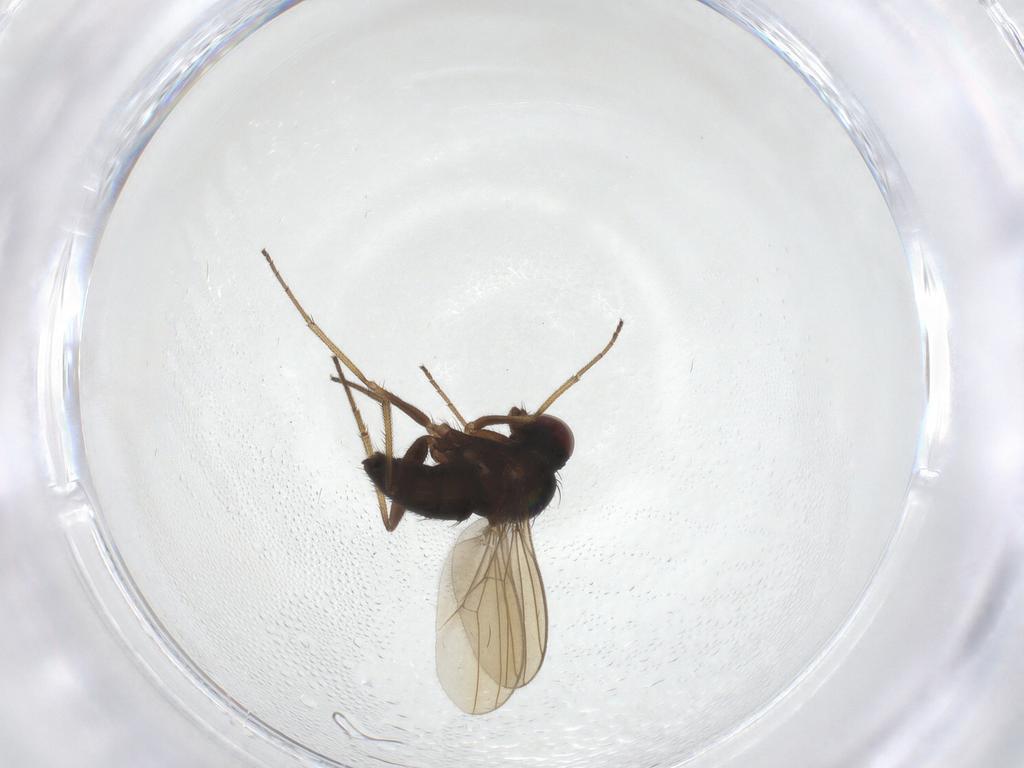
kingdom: Animalia
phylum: Arthropoda
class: Insecta
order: Diptera
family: Dolichopodidae
